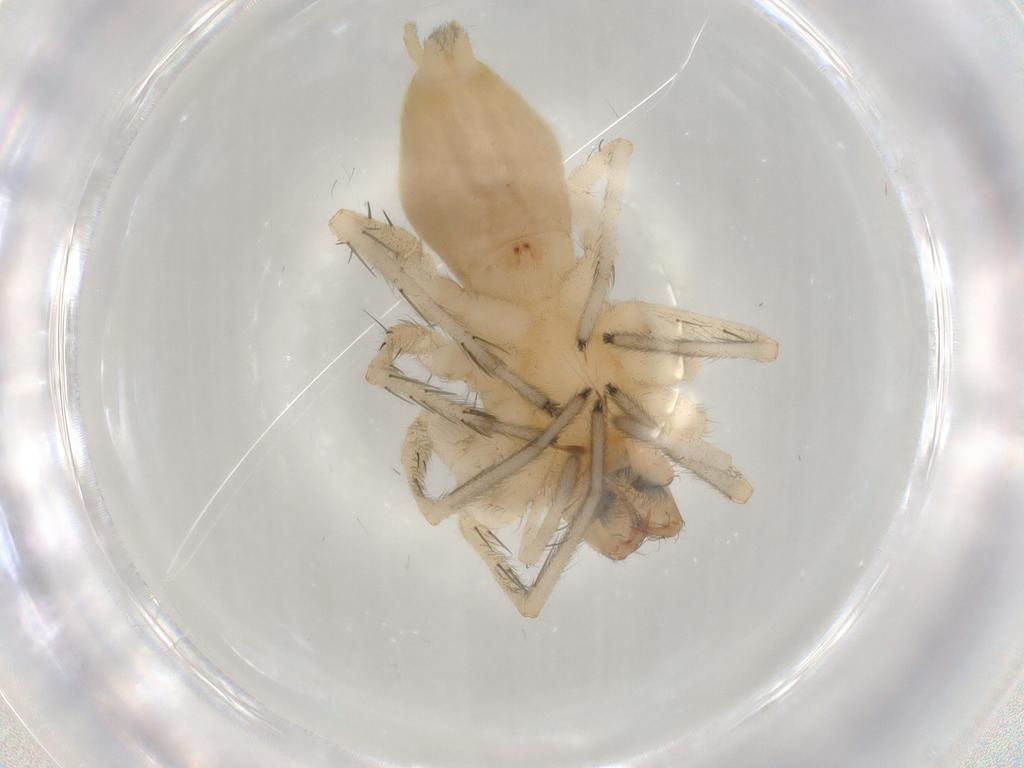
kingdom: Animalia
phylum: Arthropoda
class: Arachnida
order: Araneae
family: Anyphaenidae
